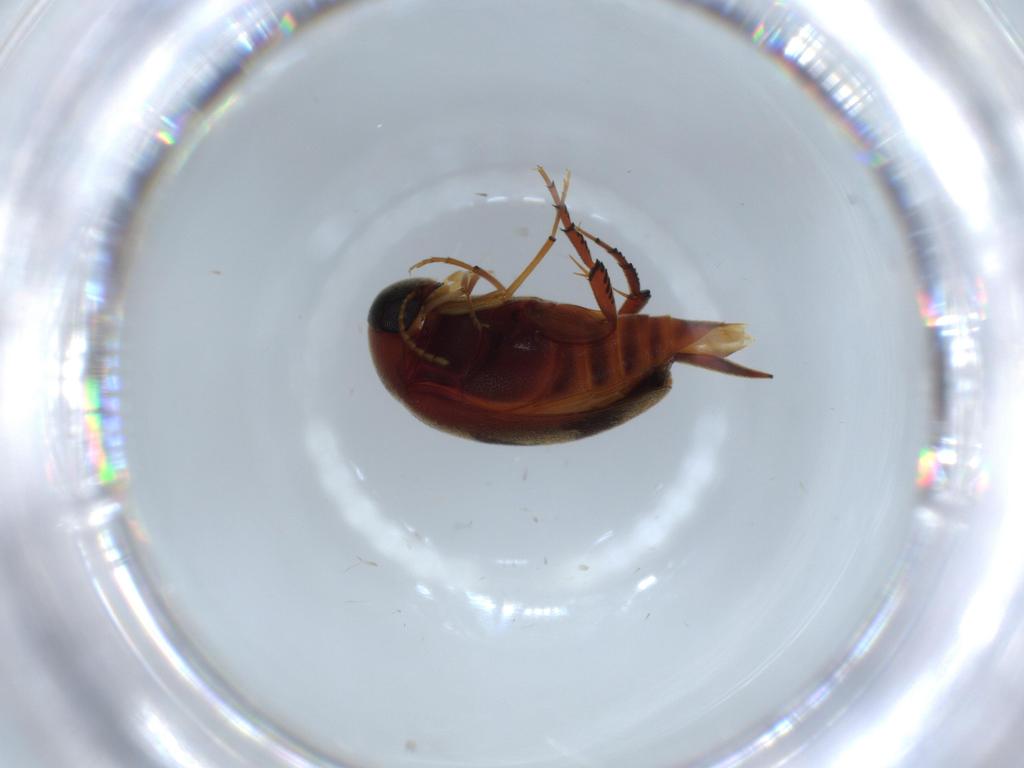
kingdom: Animalia
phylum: Arthropoda
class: Insecta
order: Coleoptera
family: Mordellidae
